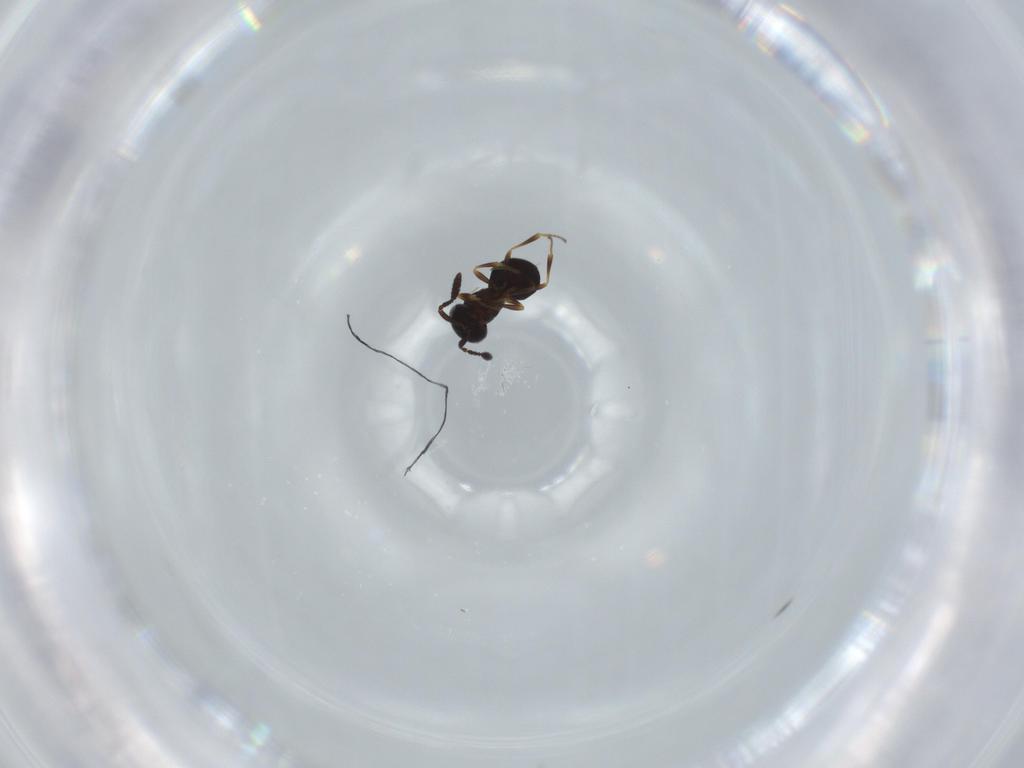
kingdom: Animalia
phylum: Arthropoda
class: Insecta
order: Hymenoptera
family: Scelionidae
